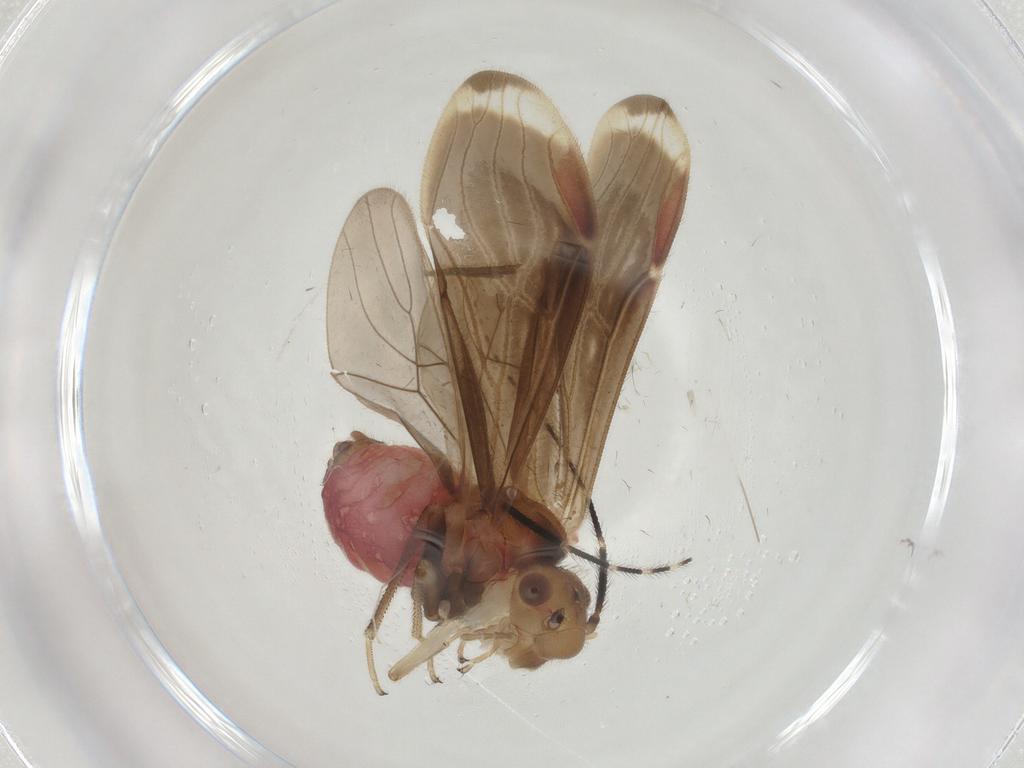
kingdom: Animalia
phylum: Arthropoda
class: Insecta
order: Psocodea
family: Amphipsocidae
